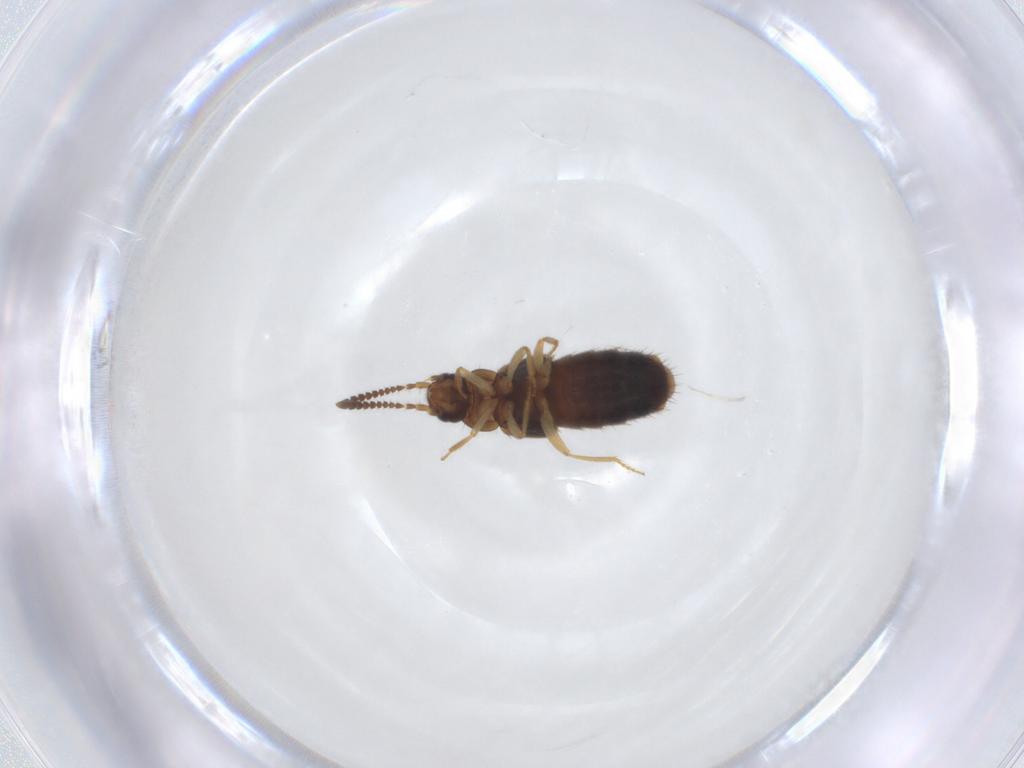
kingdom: Animalia
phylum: Arthropoda
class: Insecta
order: Coleoptera
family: Staphylinidae
